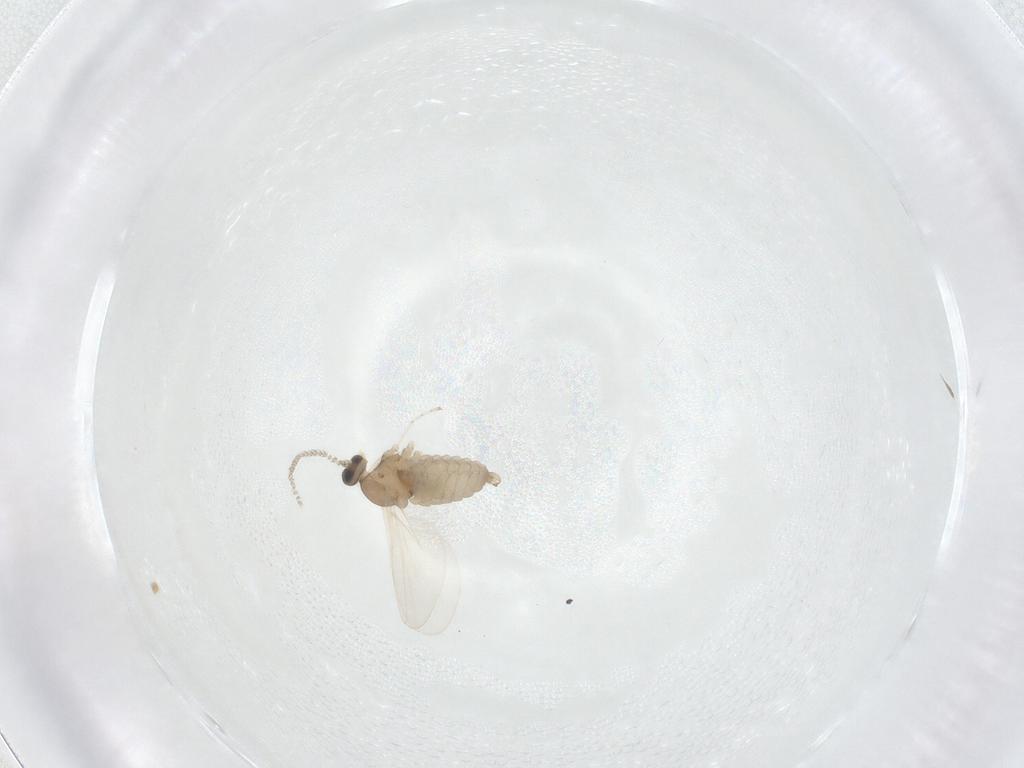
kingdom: Animalia
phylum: Arthropoda
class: Insecta
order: Diptera
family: Cecidomyiidae
